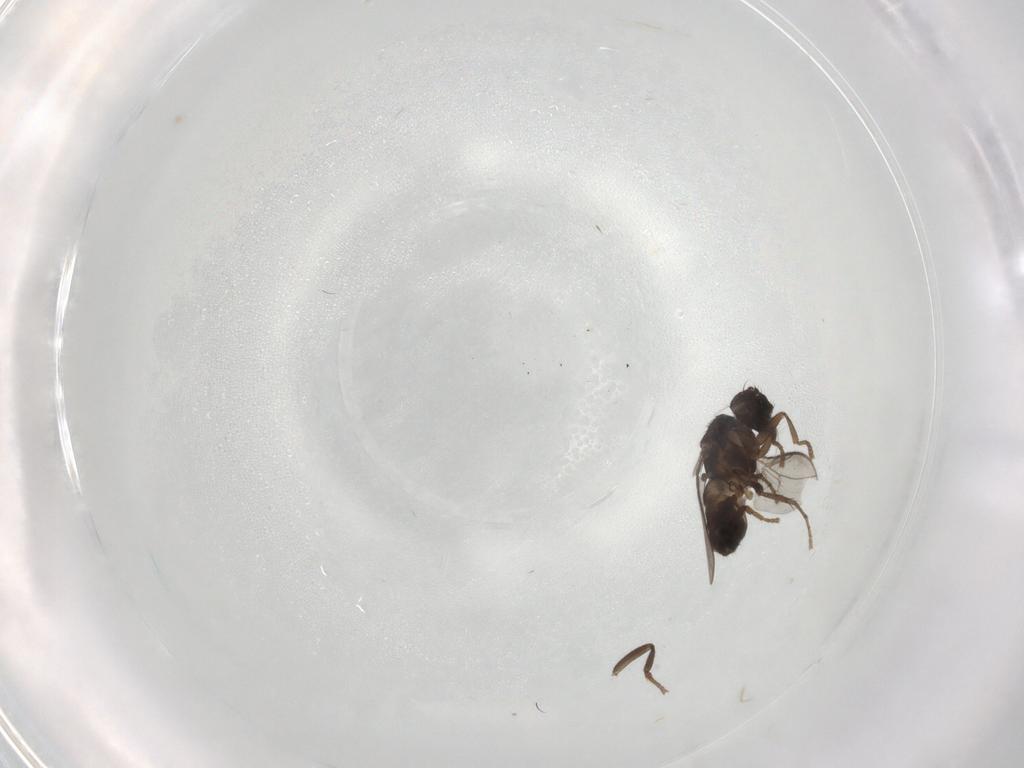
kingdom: Animalia
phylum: Arthropoda
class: Insecta
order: Diptera
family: Sphaeroceridae
